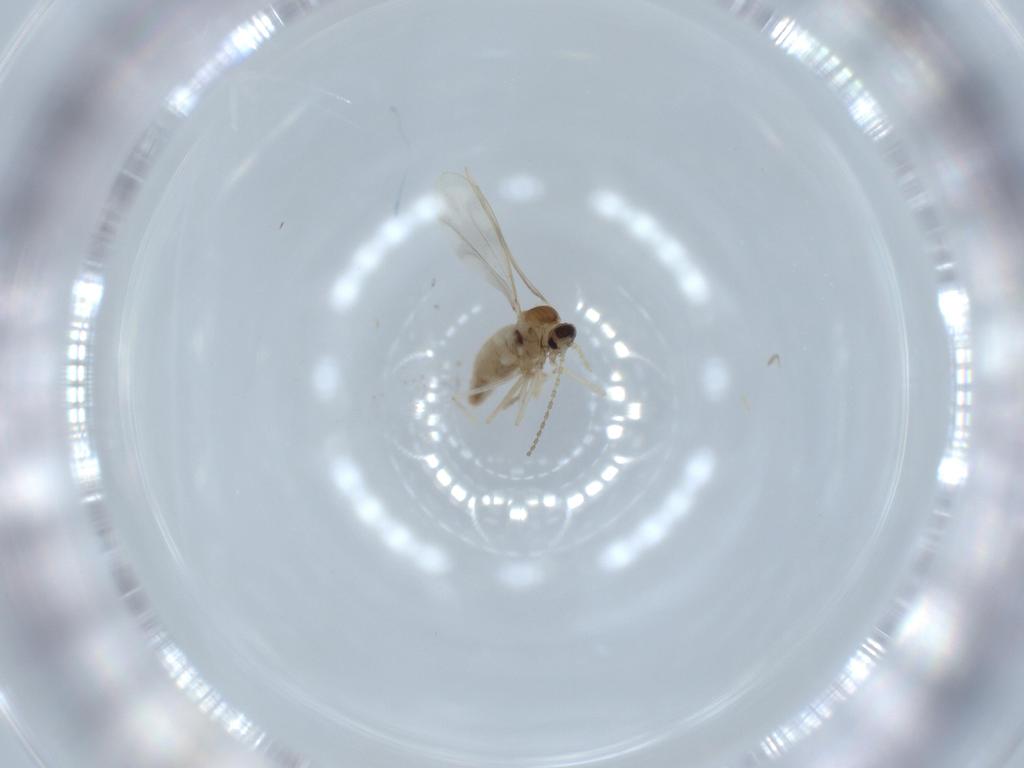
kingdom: Animalia
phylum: Arthropoda
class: Insecta
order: Diptera
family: Cecidomyiidae
